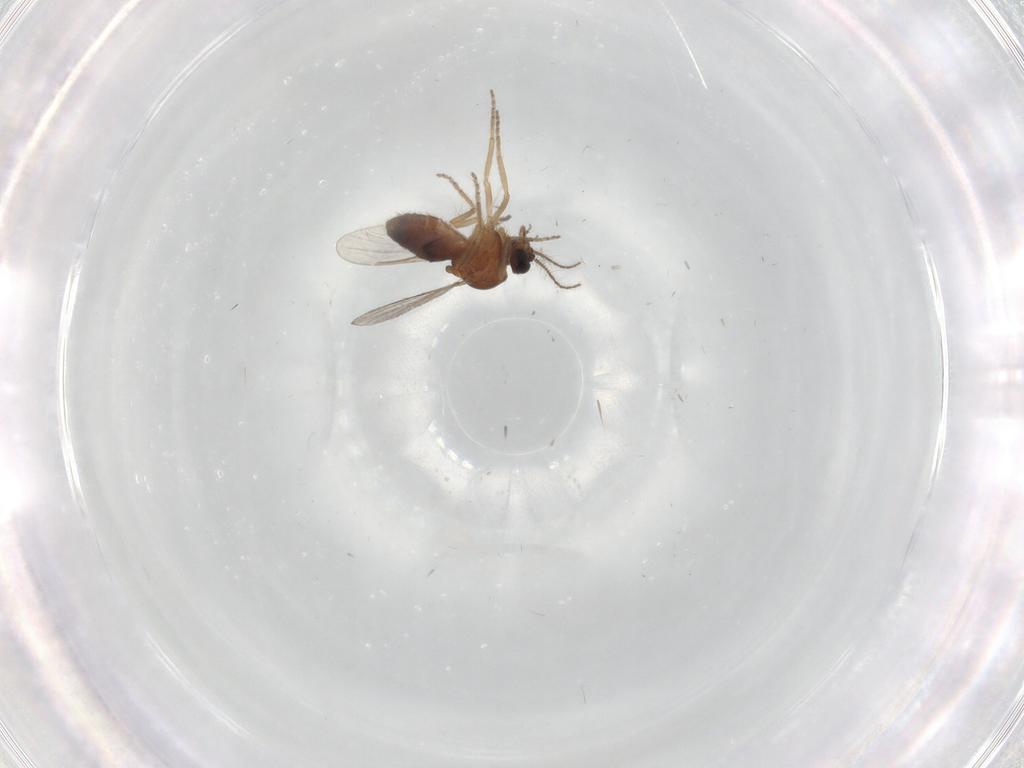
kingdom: Animalia
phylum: Arthropoda
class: Insecta
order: Diptera
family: Ceratopogonidae
